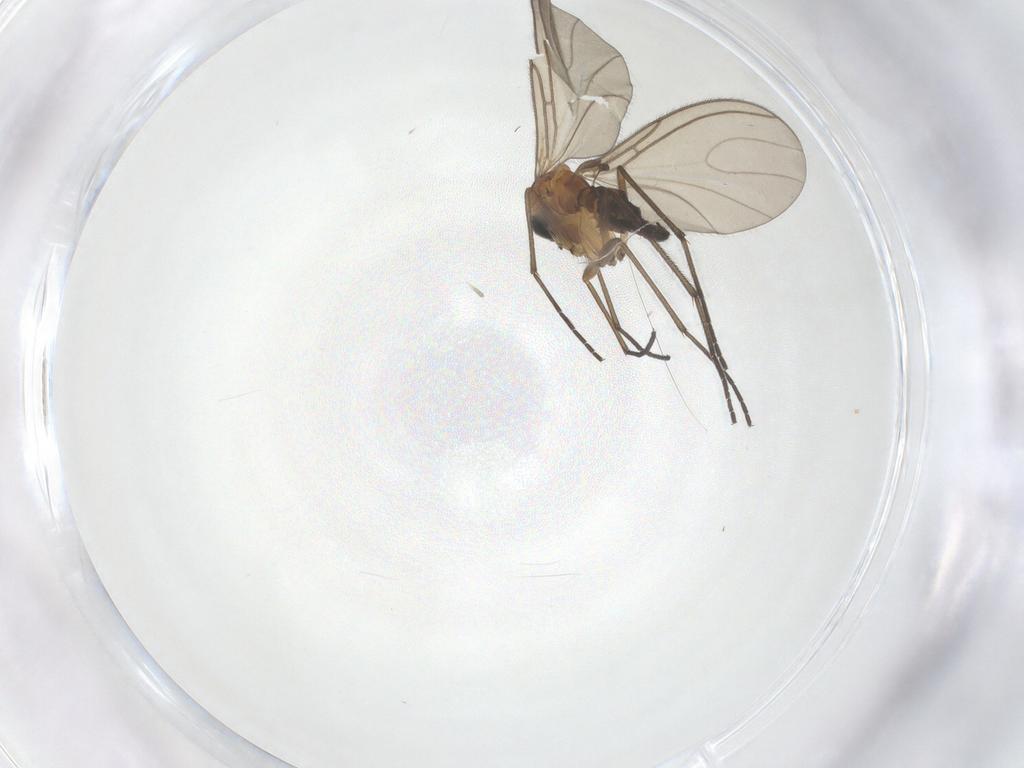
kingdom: Animalia
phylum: Arthropoda
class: Insecta
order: Diptera
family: Sciaridae
